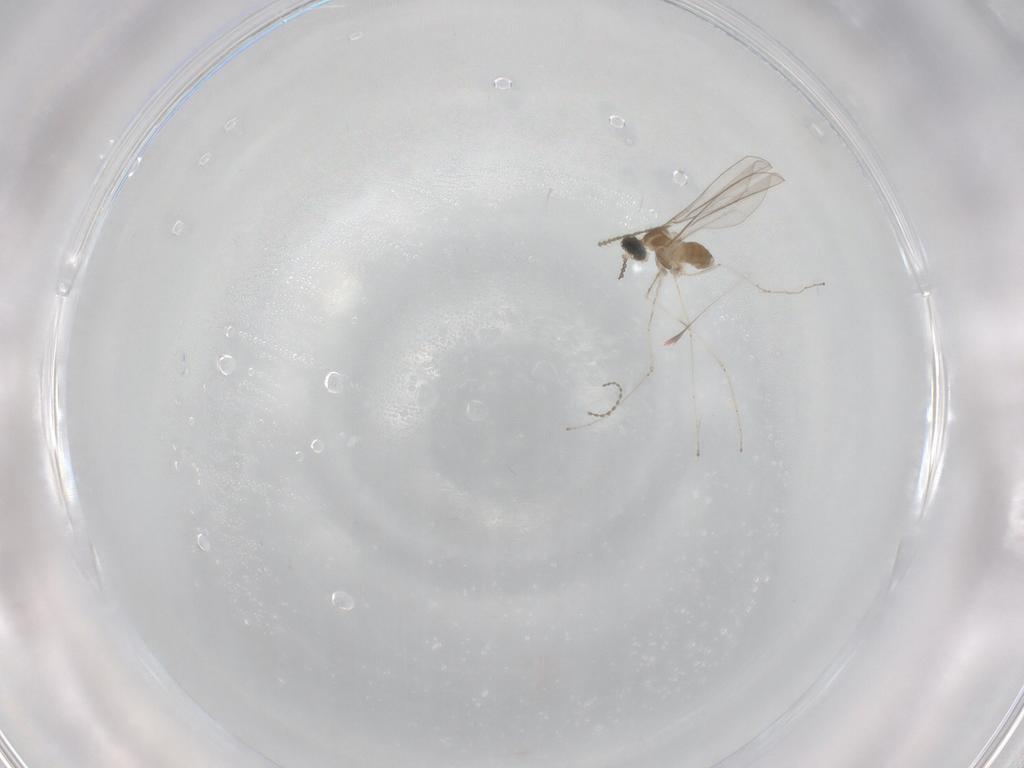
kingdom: Animalia
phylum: Arthropoda
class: Insecta
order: Diptera
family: Ceratopogonidae
